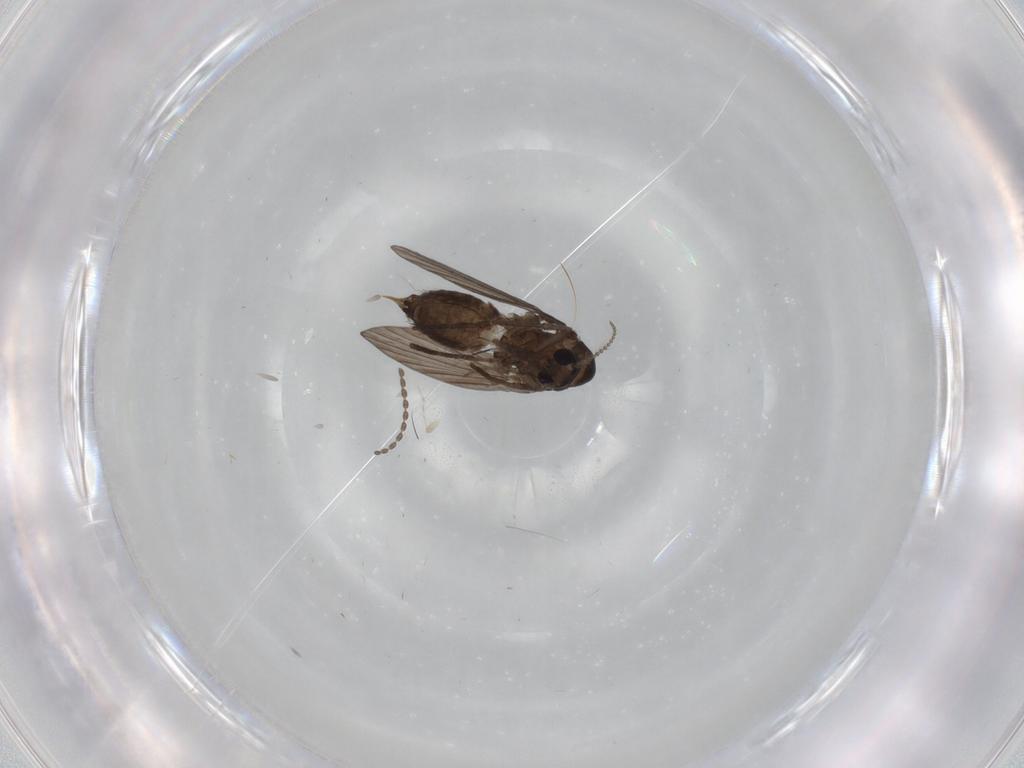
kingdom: Animalia
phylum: Arthropoda
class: Insecta
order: Diptera
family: Psychodidae
